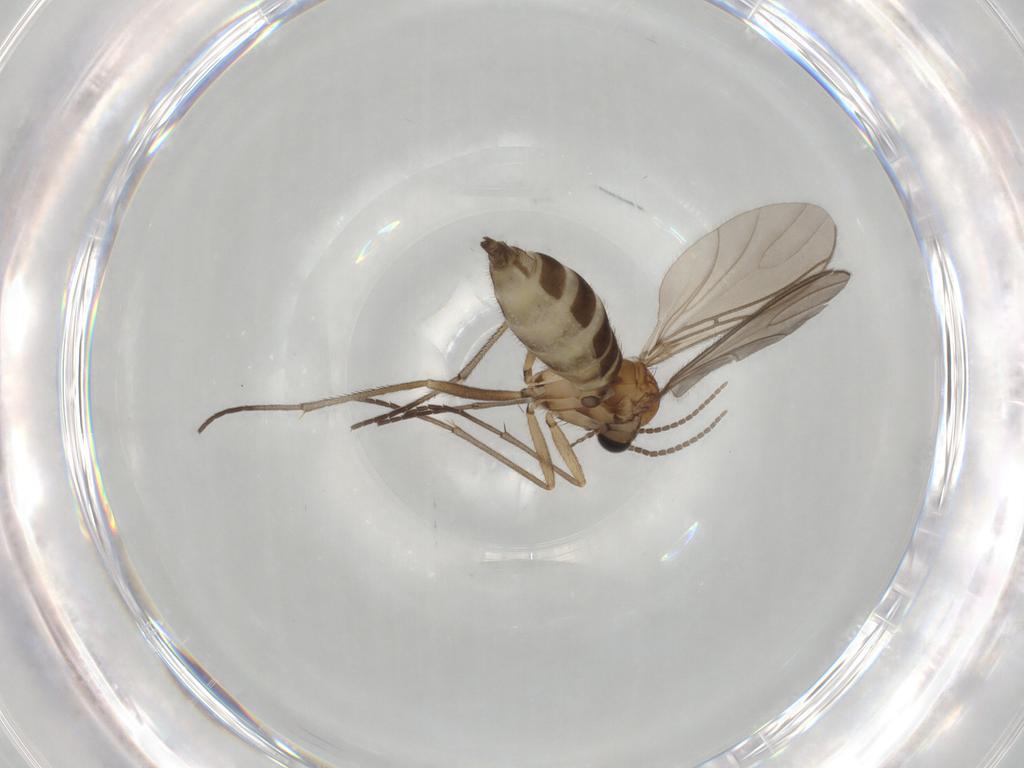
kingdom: Animalia
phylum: Arthropoda
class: Insecta
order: Diptera
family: Sciaridae
